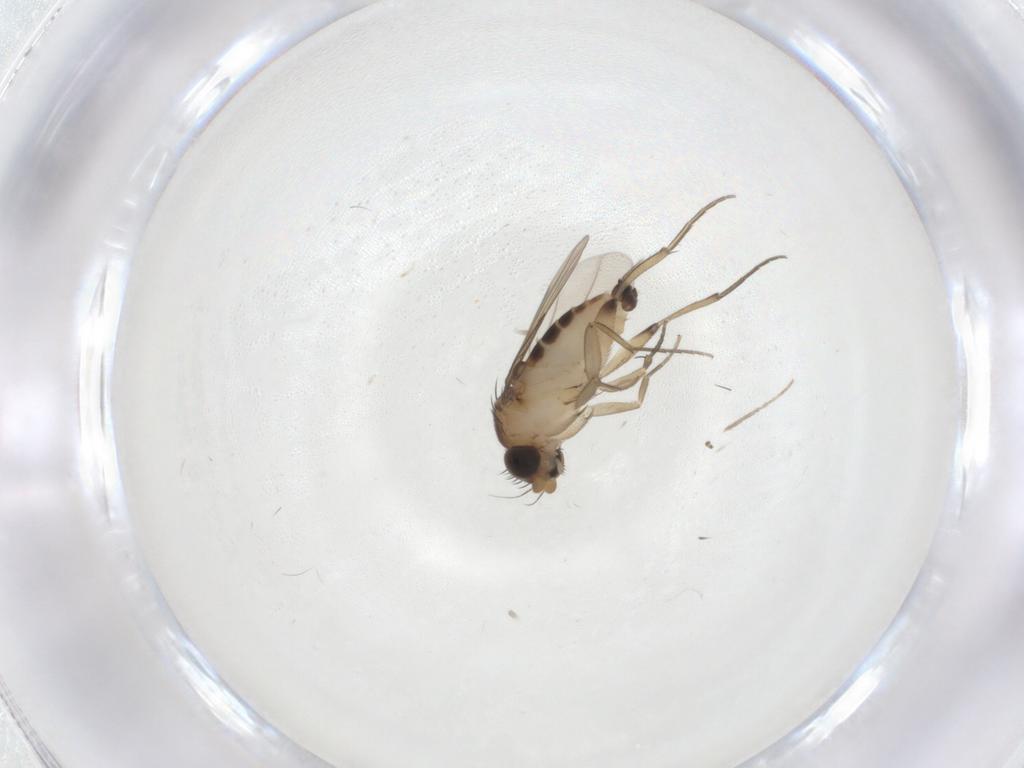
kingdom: Animalia
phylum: Arthropoda
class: Insecta
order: Diptera
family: Phoridae
